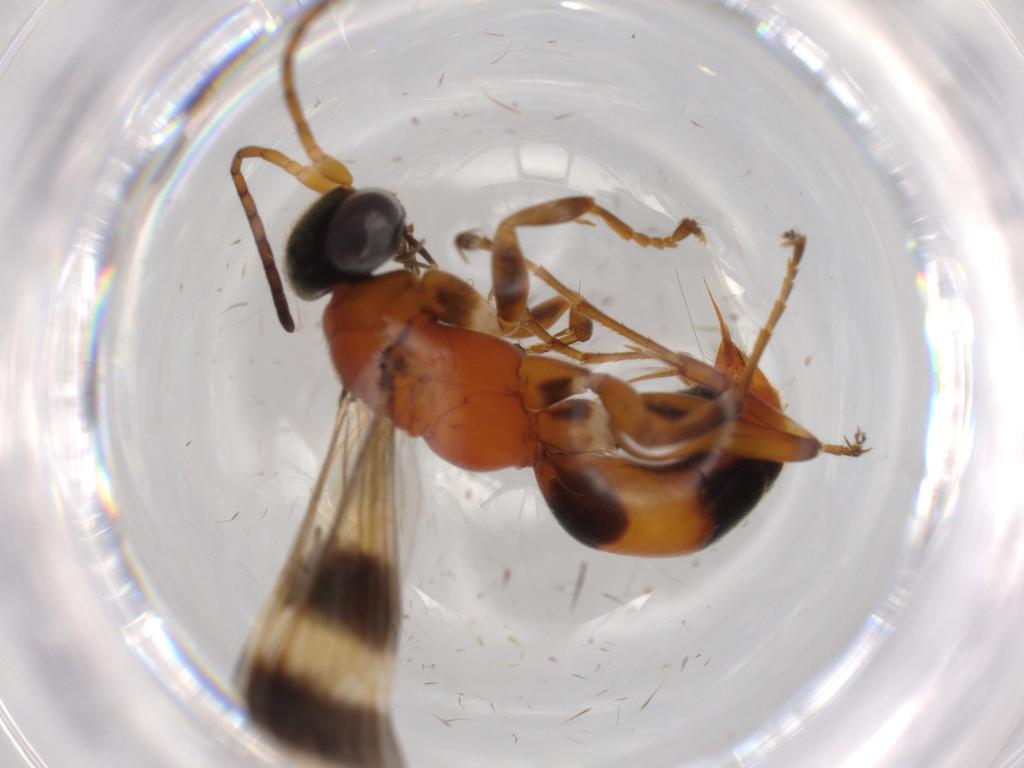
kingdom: Animalia
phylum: Arthropoda
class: Insecta
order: Hymenoptera
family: Pompilidae
